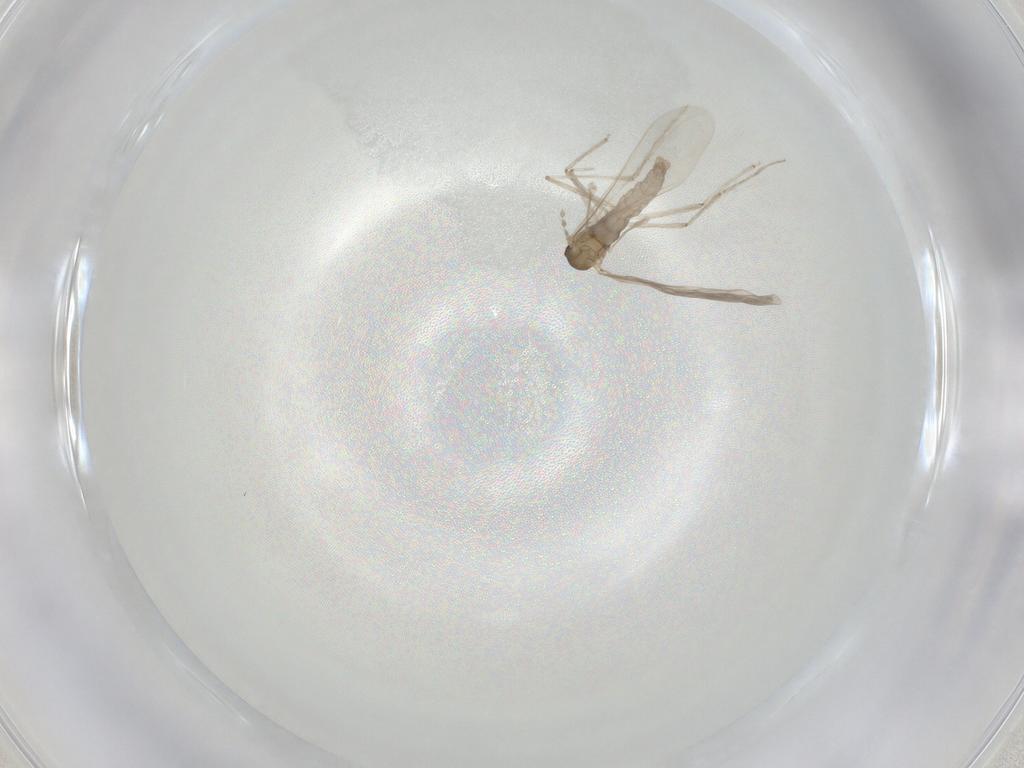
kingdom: Animalia
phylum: Arthropoda
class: Insecta
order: Diptera
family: Cecidomyiidae
